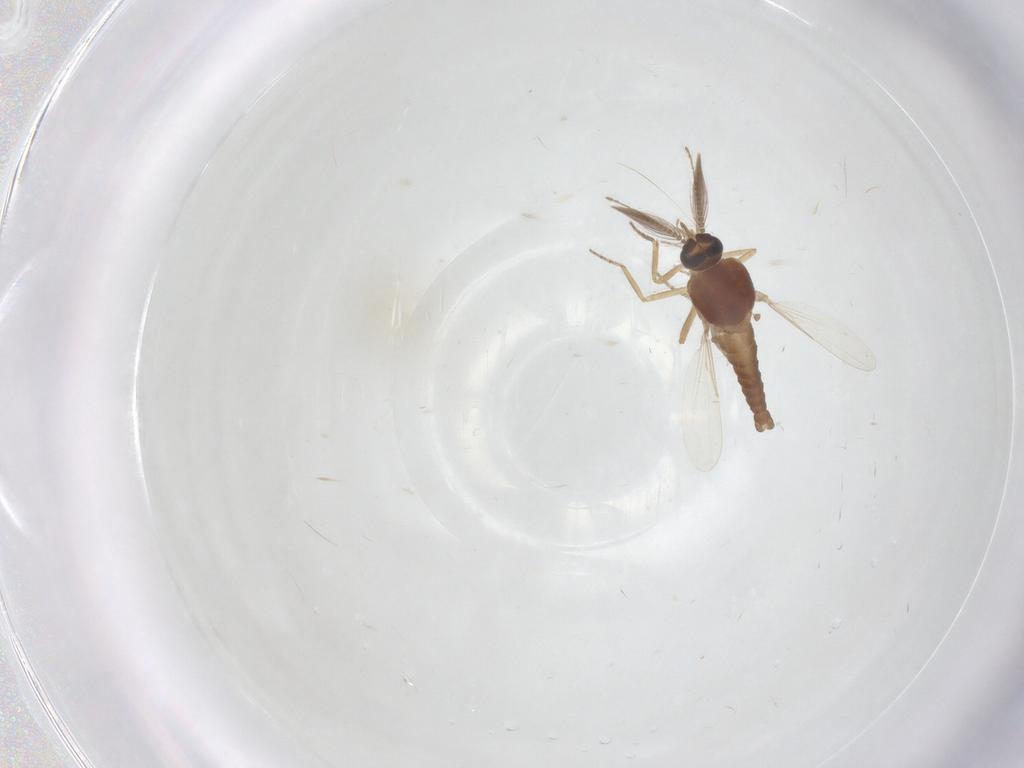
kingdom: Animalia
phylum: Arthropoda
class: Insecta
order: Diptera
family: Ceratopogonidae
